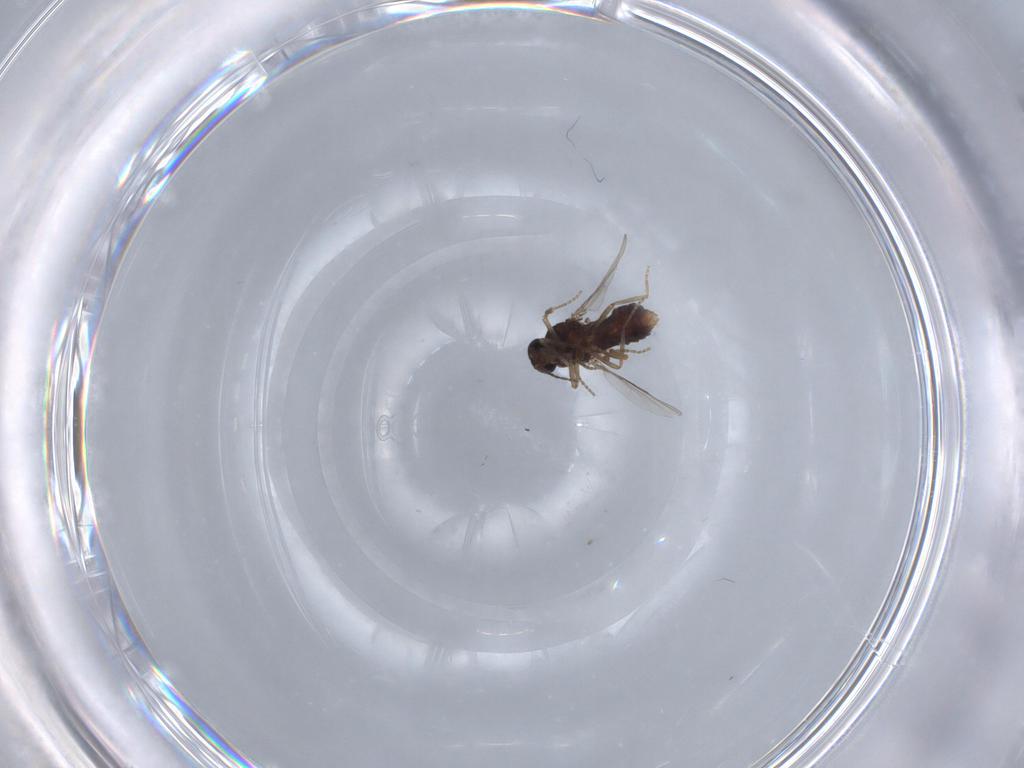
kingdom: Animalia
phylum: Arthropoda
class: Insecta
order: Diptera
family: Ceratopogonidae
